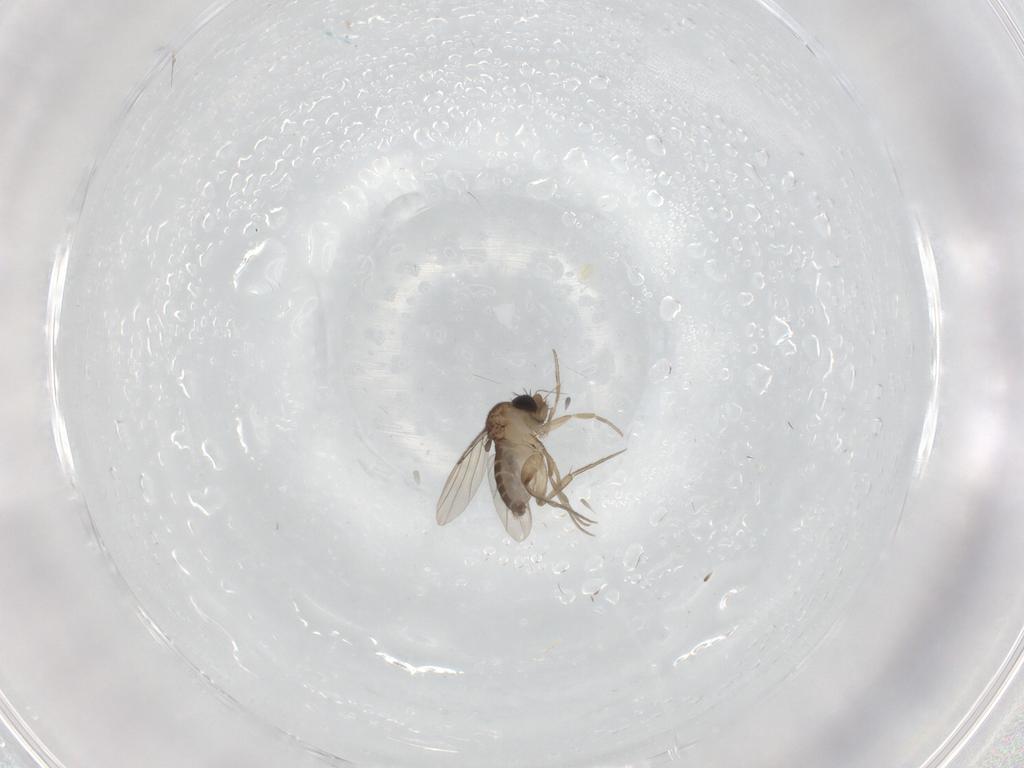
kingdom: Animalia
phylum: Arthropoda
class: Insecta
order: Diptera
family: Phoridae
